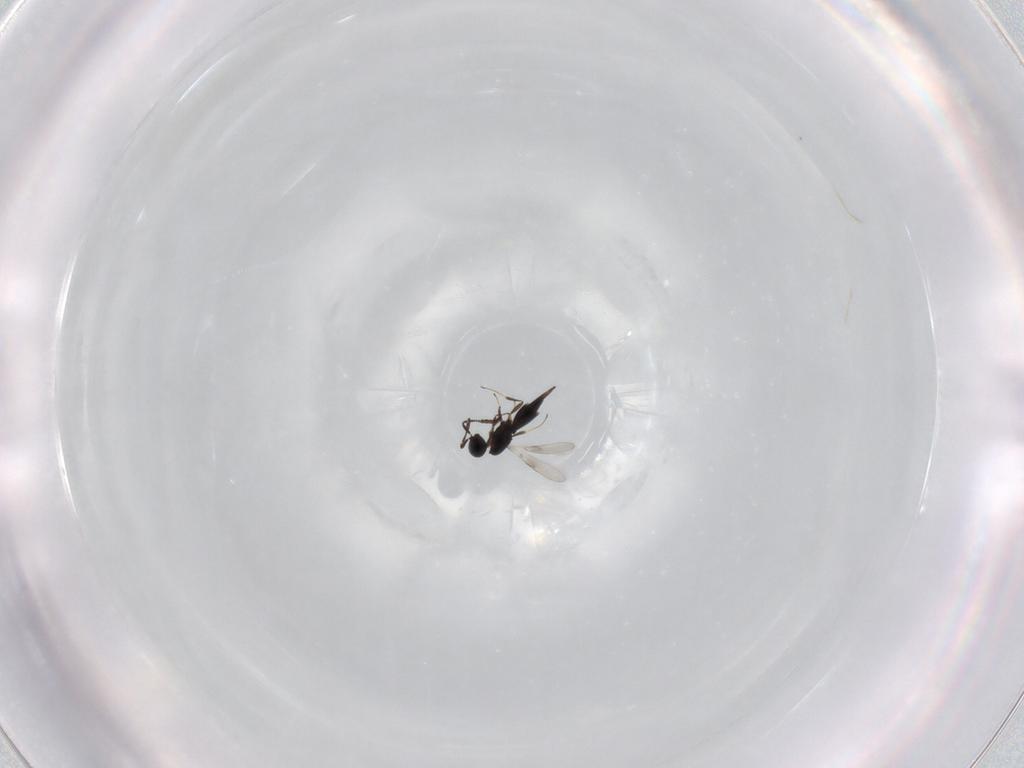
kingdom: Animalia
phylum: Arthropoda
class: Insecta
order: Hymenoptera
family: Scelionidae
